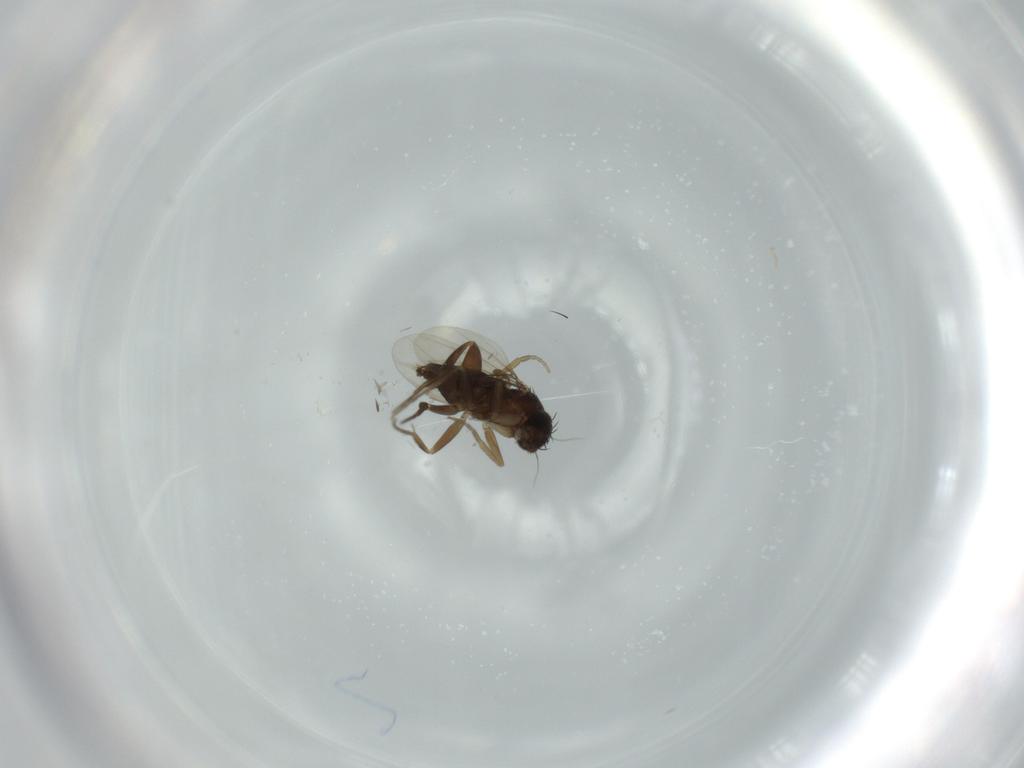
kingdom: Animalia
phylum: Arthropoda
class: Insecta
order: Diptera
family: Phoridae
